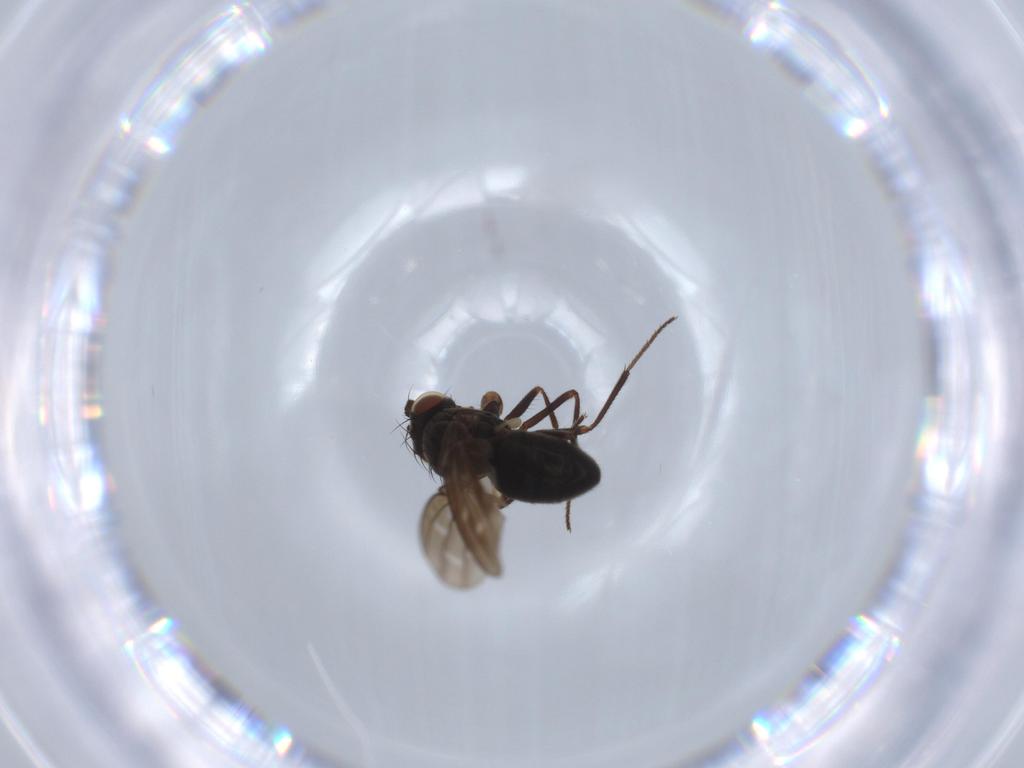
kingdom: Animalia
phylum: Arthropoda
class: Insecta
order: Diptera
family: Ephydridae
